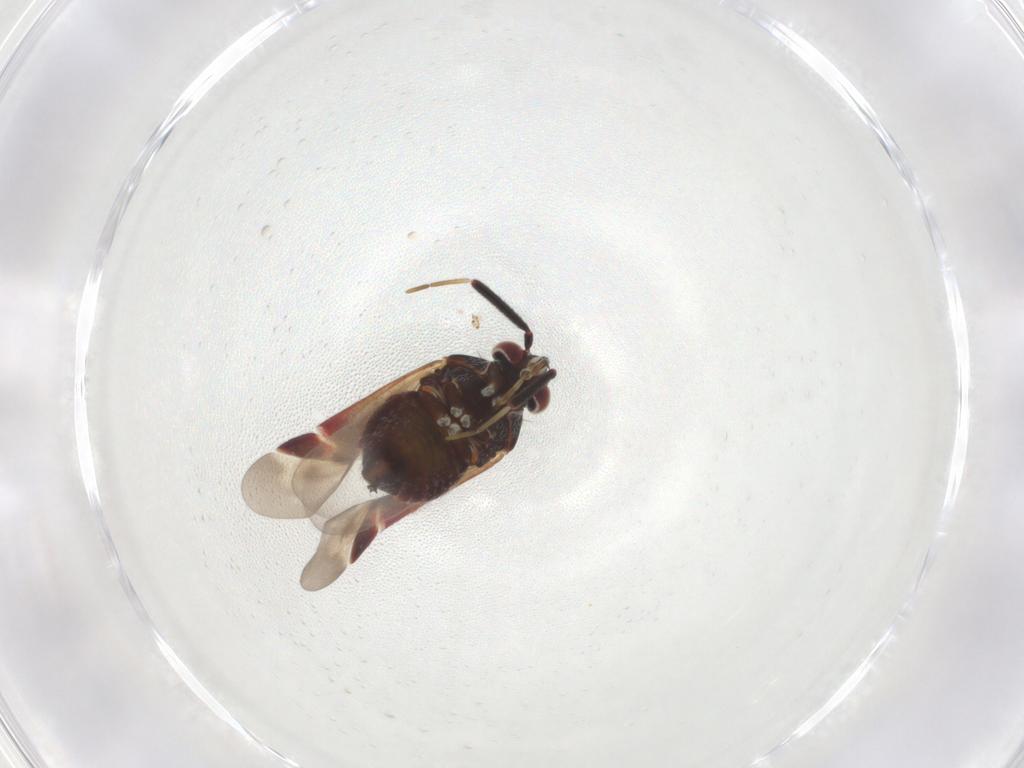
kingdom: Animalia
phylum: Arthropoda
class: Insecta
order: Hemiptera
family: Miridae
